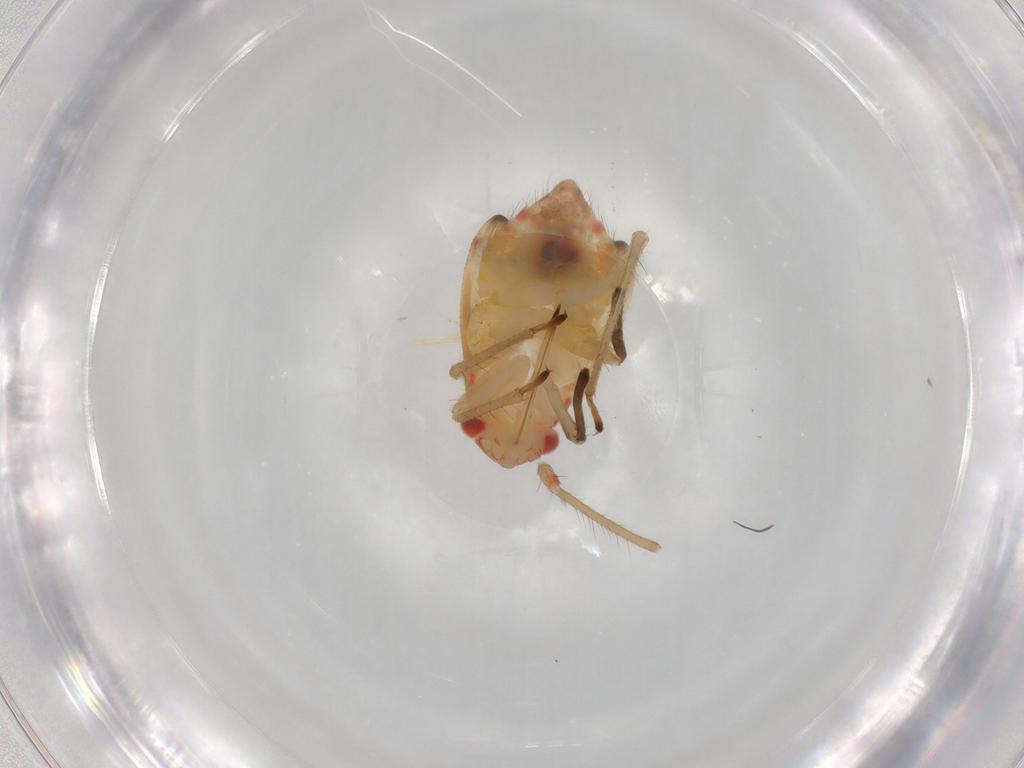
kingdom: Animalia
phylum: Arthropoda
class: Insecta
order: Hemiptera
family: Miridae
